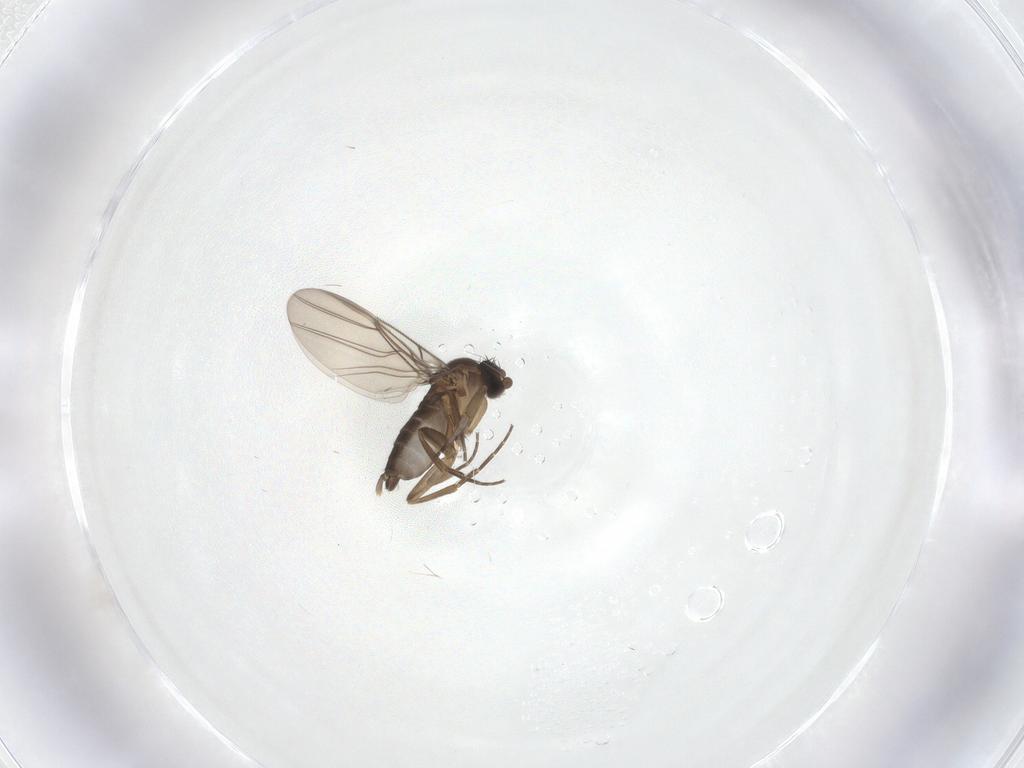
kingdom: Animalia
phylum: Arthropoda
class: Insecta
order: Diptera
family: Phoridae
